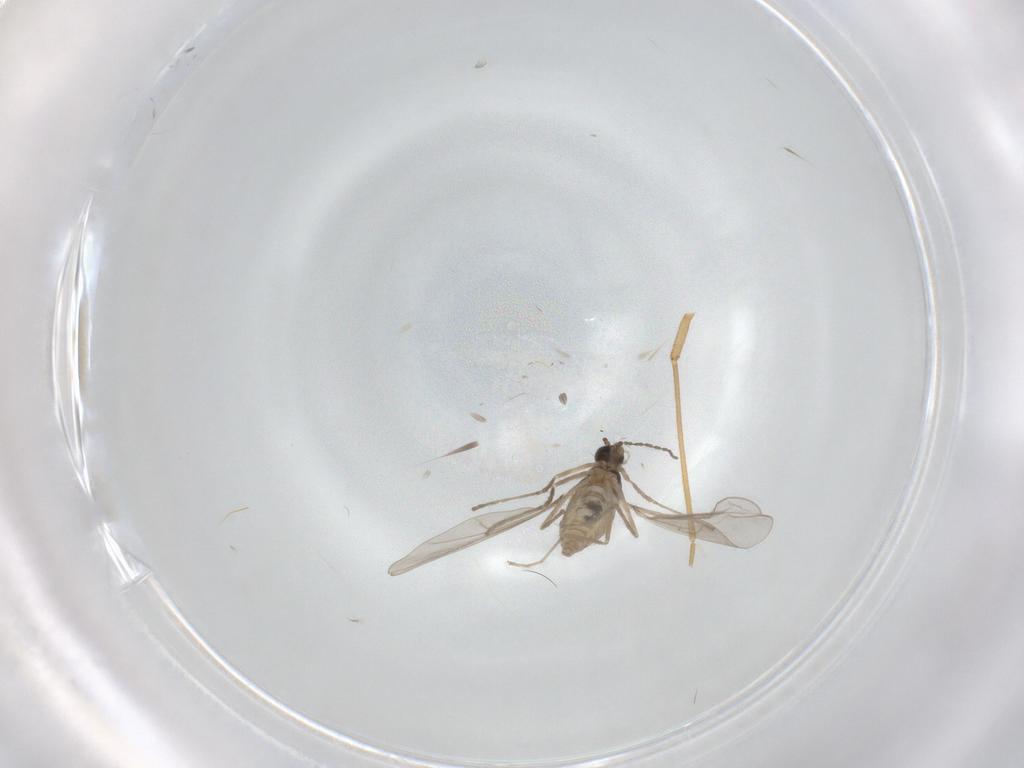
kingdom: Animalia
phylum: Arthropoda
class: Insecta
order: Diptera
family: Cecidomyiidae
